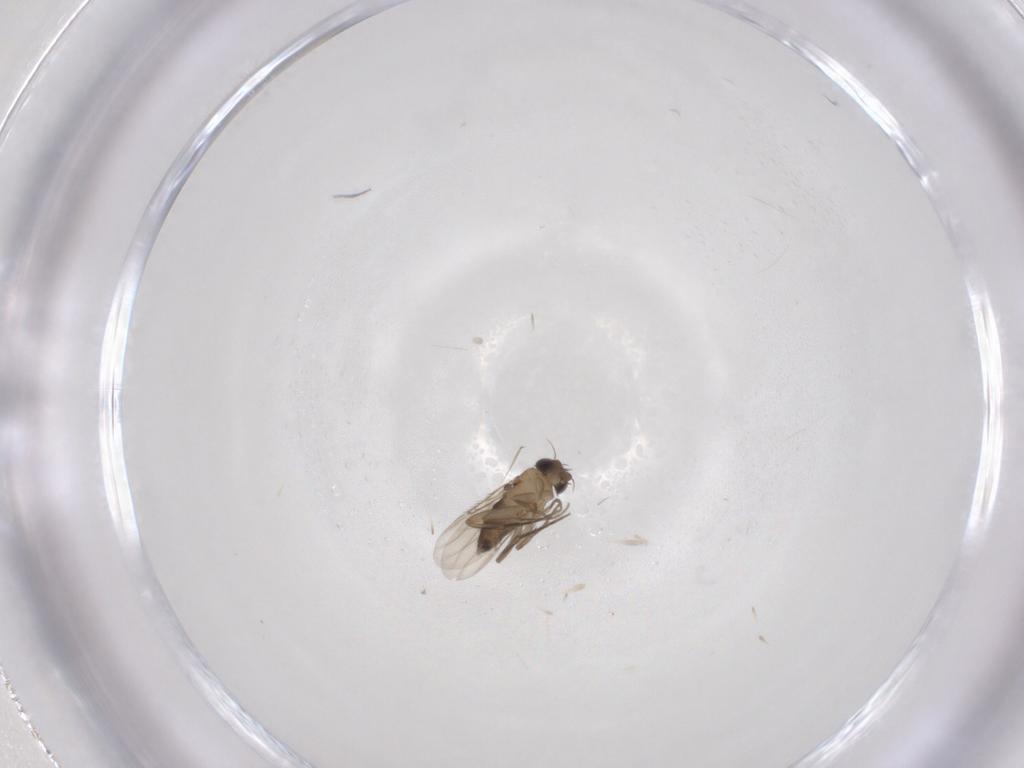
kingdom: Animalia
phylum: Arthropoda
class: Insecta
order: Diptera
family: Phoridae
